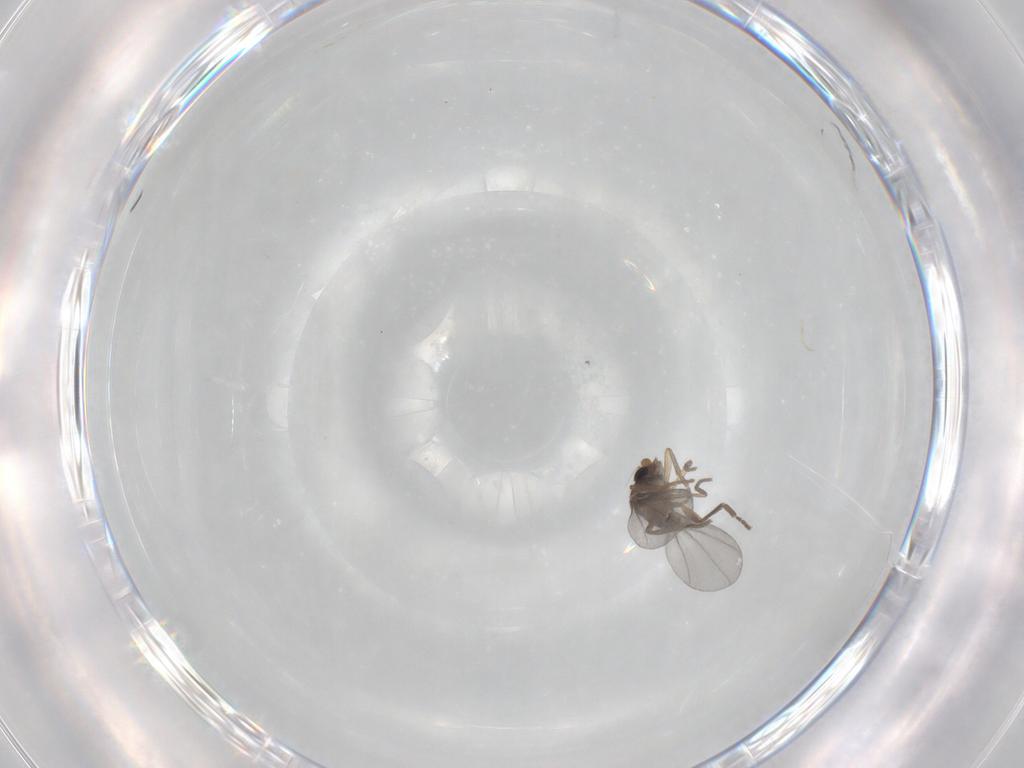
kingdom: Animalia
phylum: Arthropoda
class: Insecta
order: Diptera
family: Phoridae
